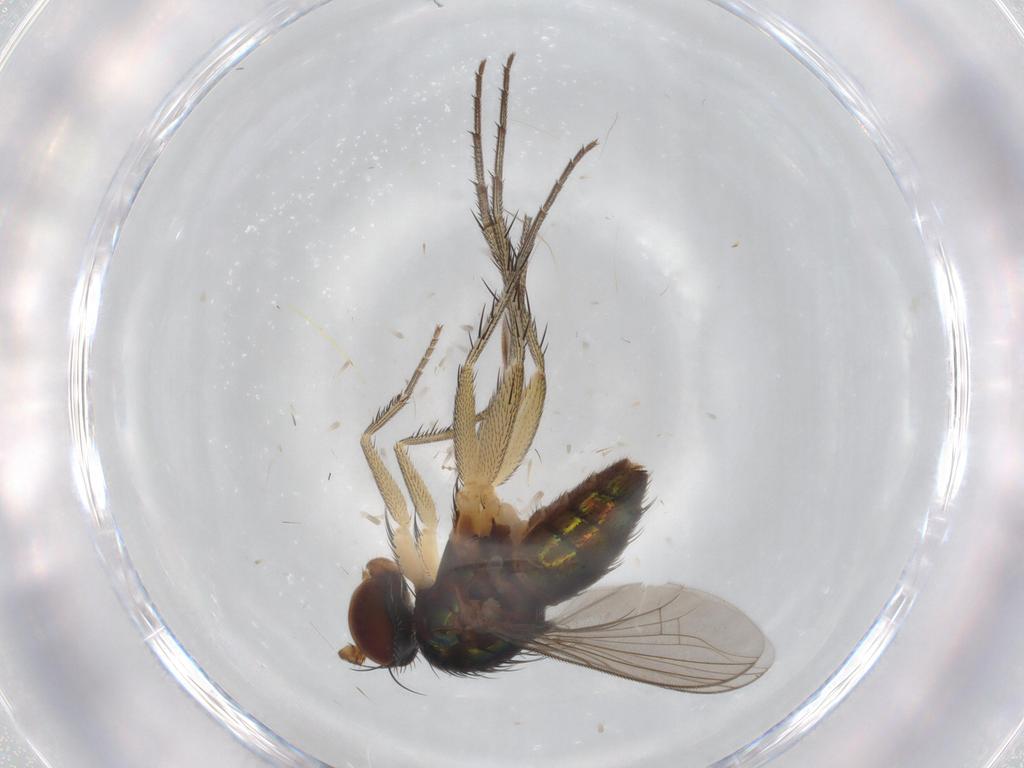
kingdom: Animalia
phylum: Arthropoda
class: Insecta
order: Diptera
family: Dolichopodidae
